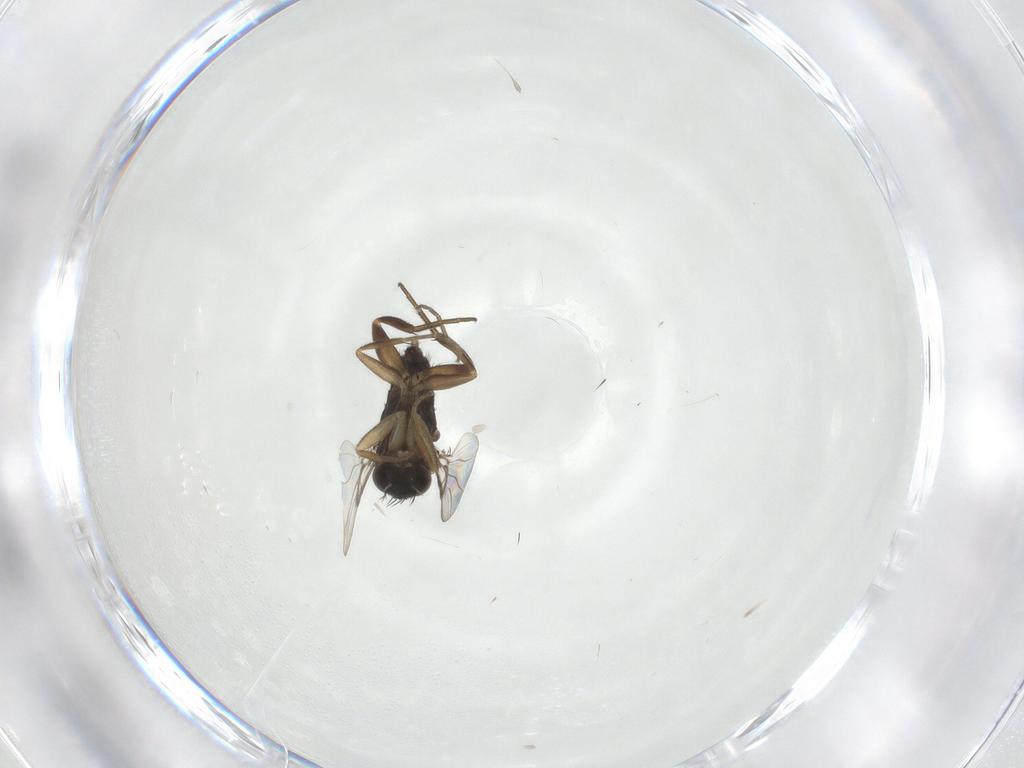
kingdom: Animalia
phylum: Arthropoda
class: Insecta
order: Diptera
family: Phoridae
